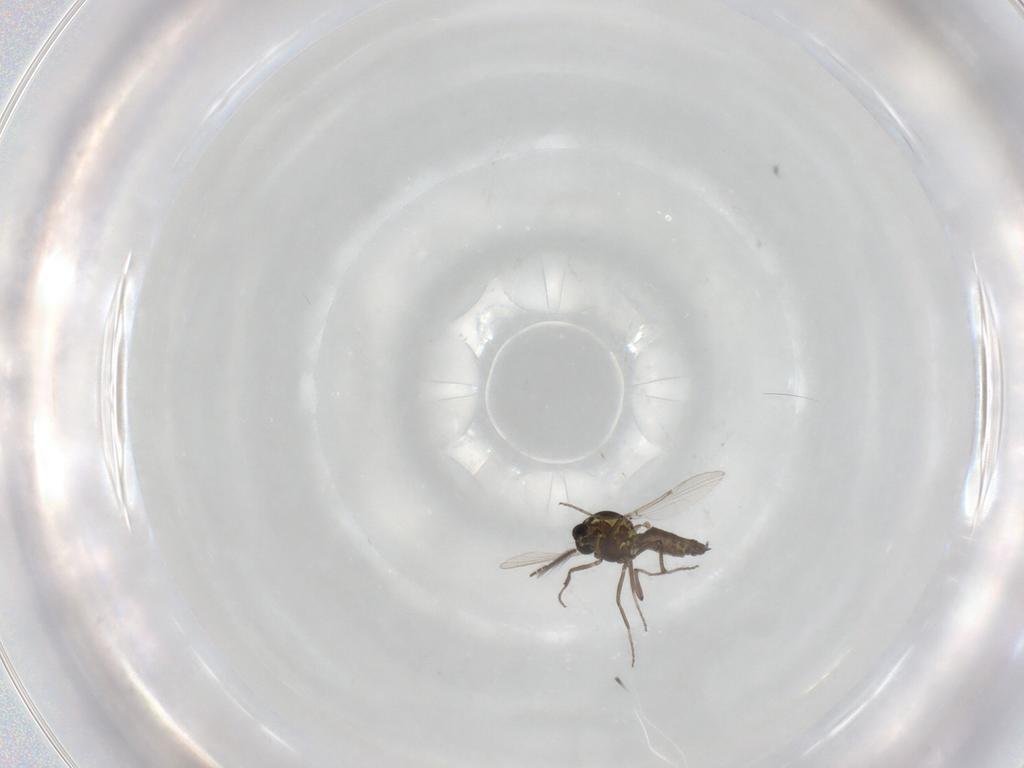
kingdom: Animalia
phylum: Arthropoda
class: Insecta
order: Diptera
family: Ceratopogonidae
